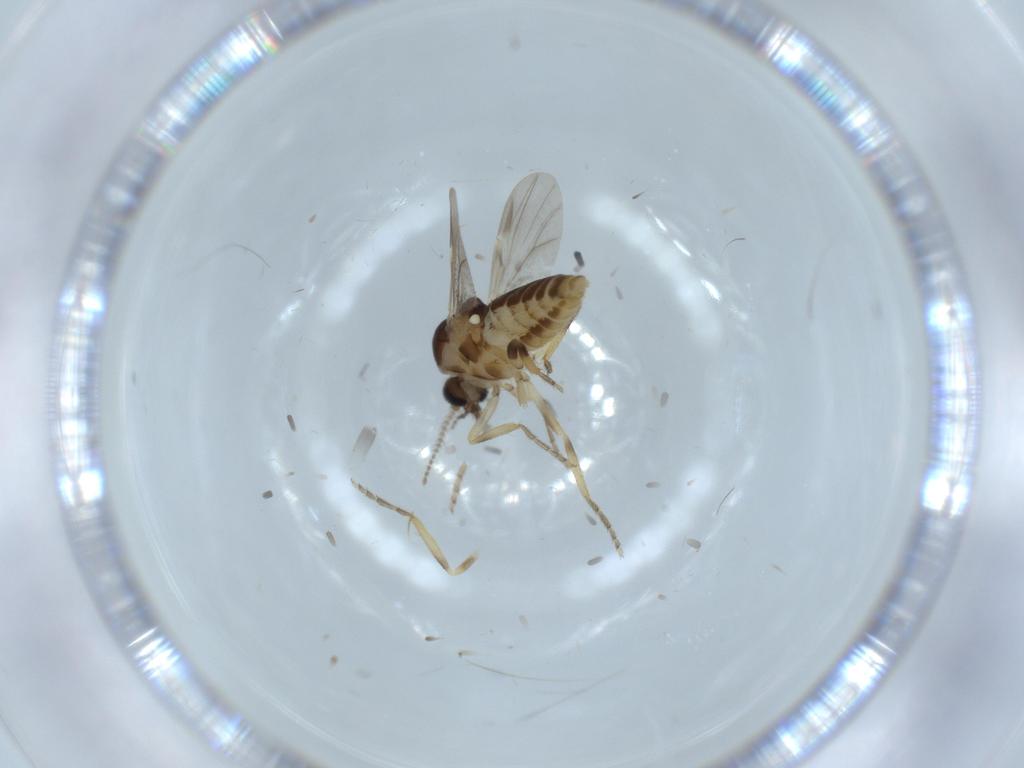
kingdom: Animalia
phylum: Arthropoda
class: Insecta
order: Diptera
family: Ceratopogonidae
